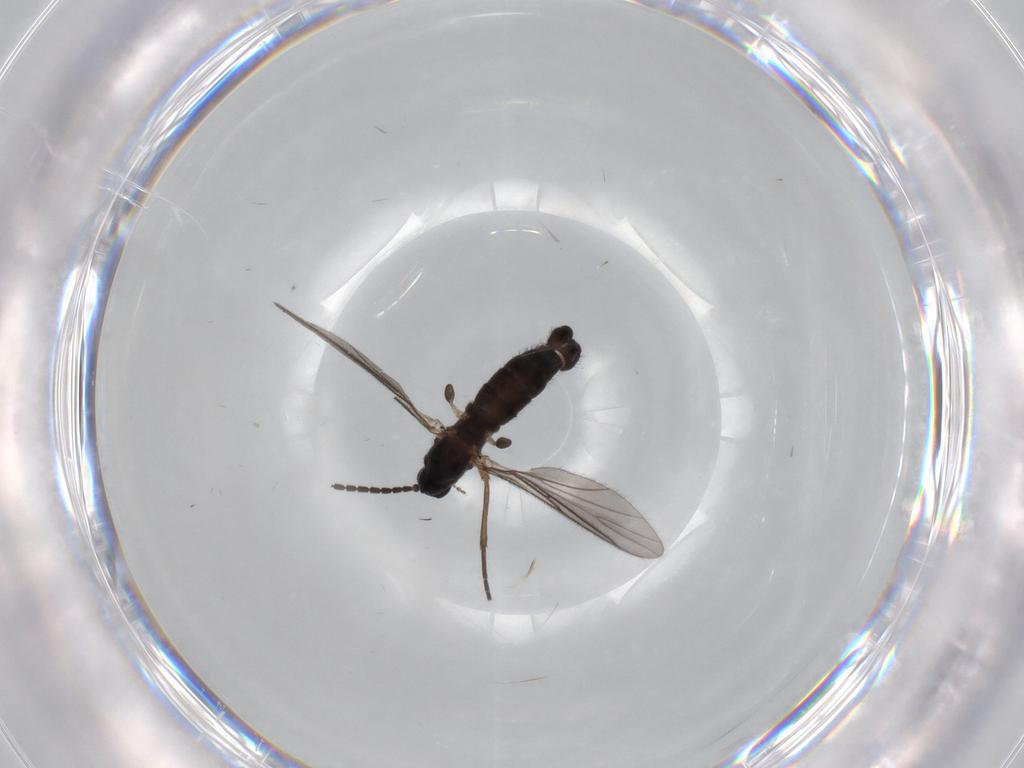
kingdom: Animalia
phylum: Arthropoda
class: Insecta
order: Diptera
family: Sciaridae
